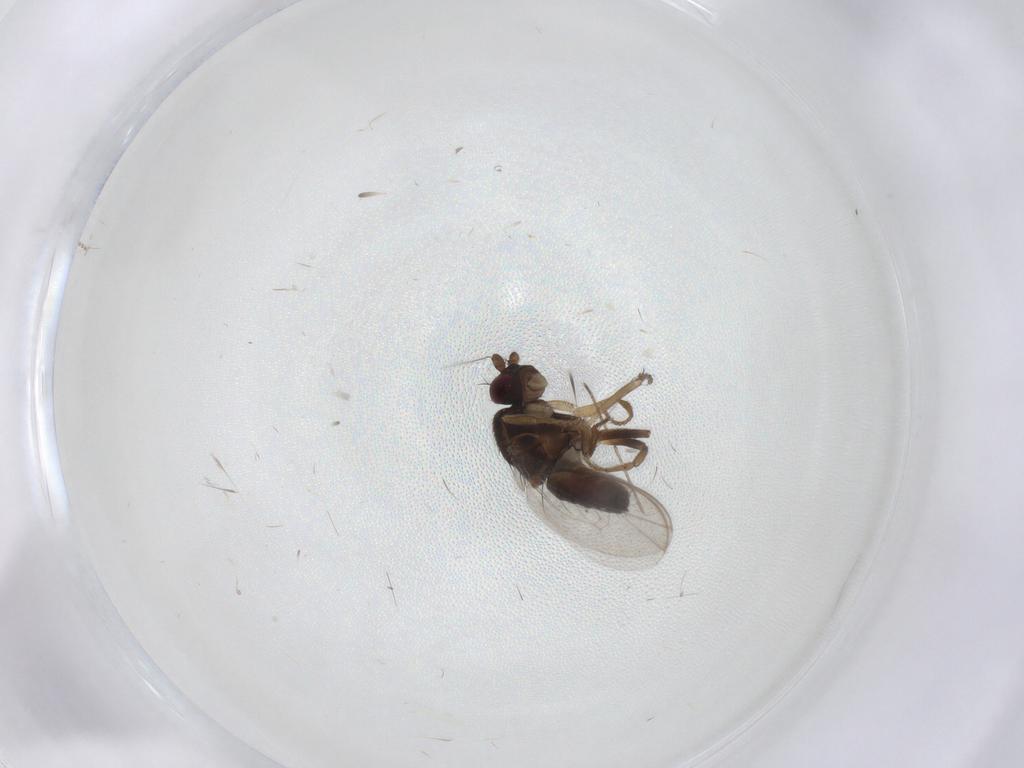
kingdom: Animalia
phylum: Arthropoda
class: Insecta
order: Diptera
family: Cecidomyiidae
